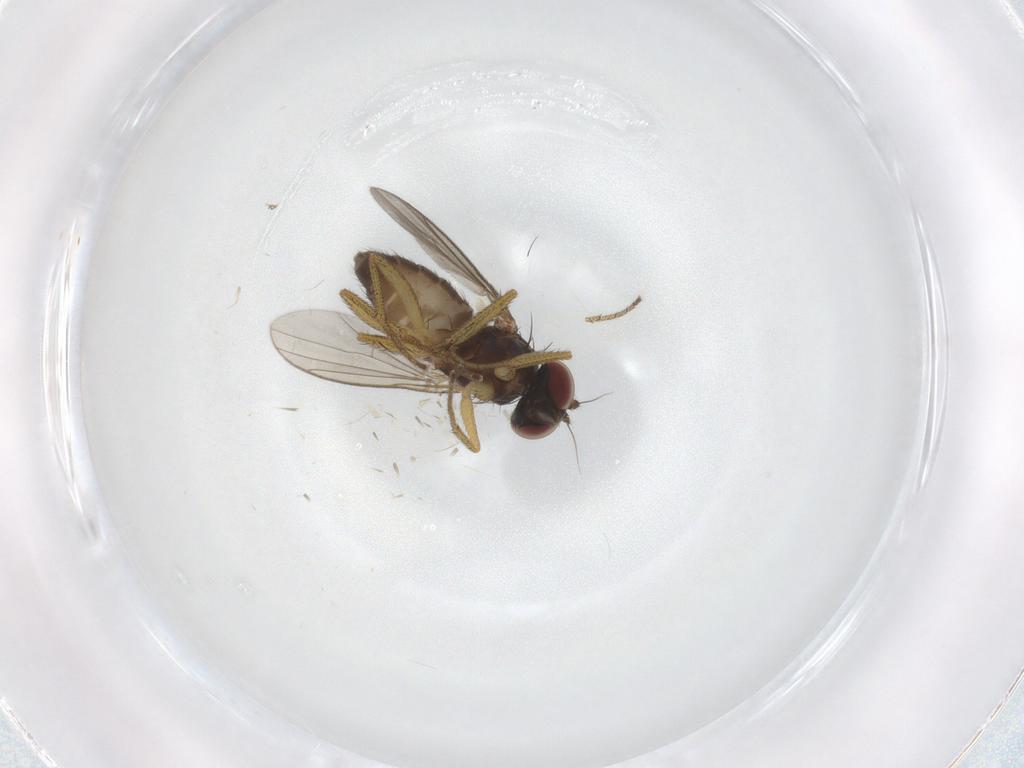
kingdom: Animalia
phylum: Arthropoda
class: Insecta
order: Diptera
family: Dolichopodidae
